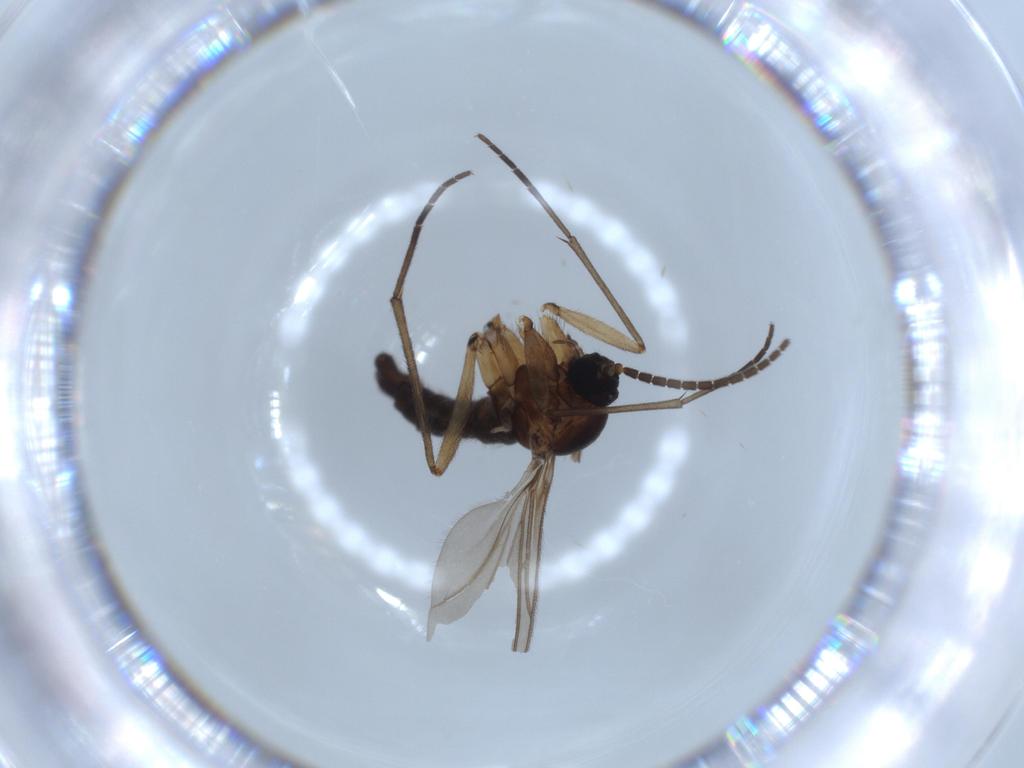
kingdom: Animalia
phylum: Arthropoda
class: Insecta
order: Diptera
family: Sciaridae
